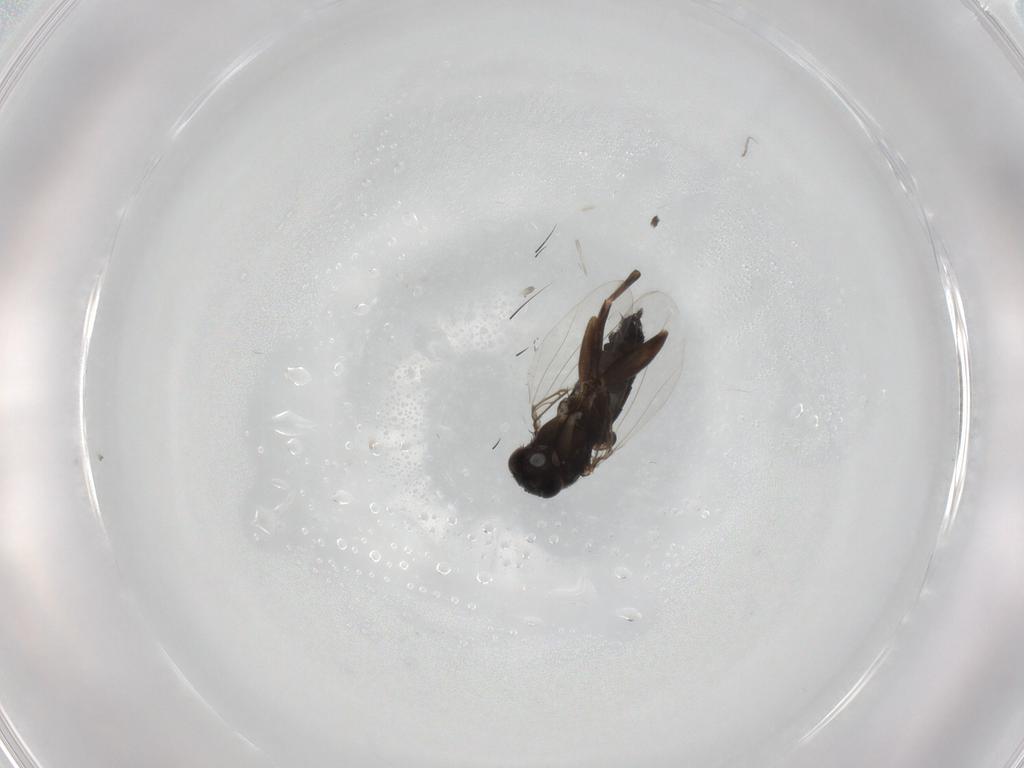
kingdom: Animalia
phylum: Arthropoda
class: Insecta
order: Diptera
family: Phoridae
